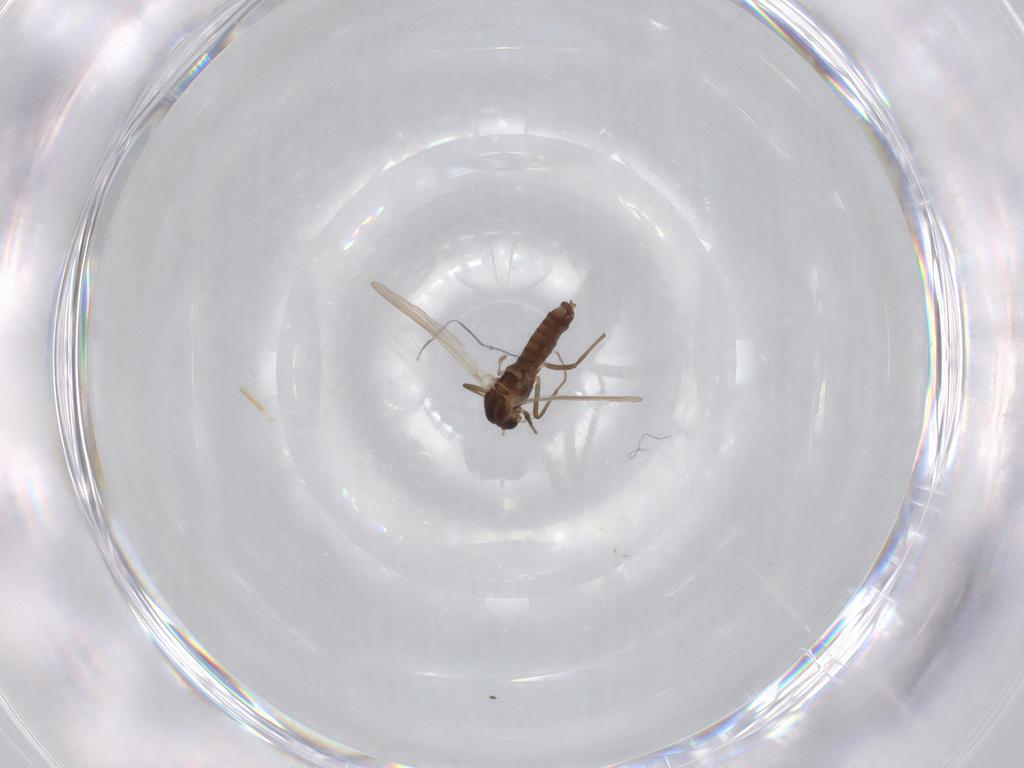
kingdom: Animalia
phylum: Arthropoda
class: Insecta
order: Diptera
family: Chironomidae
